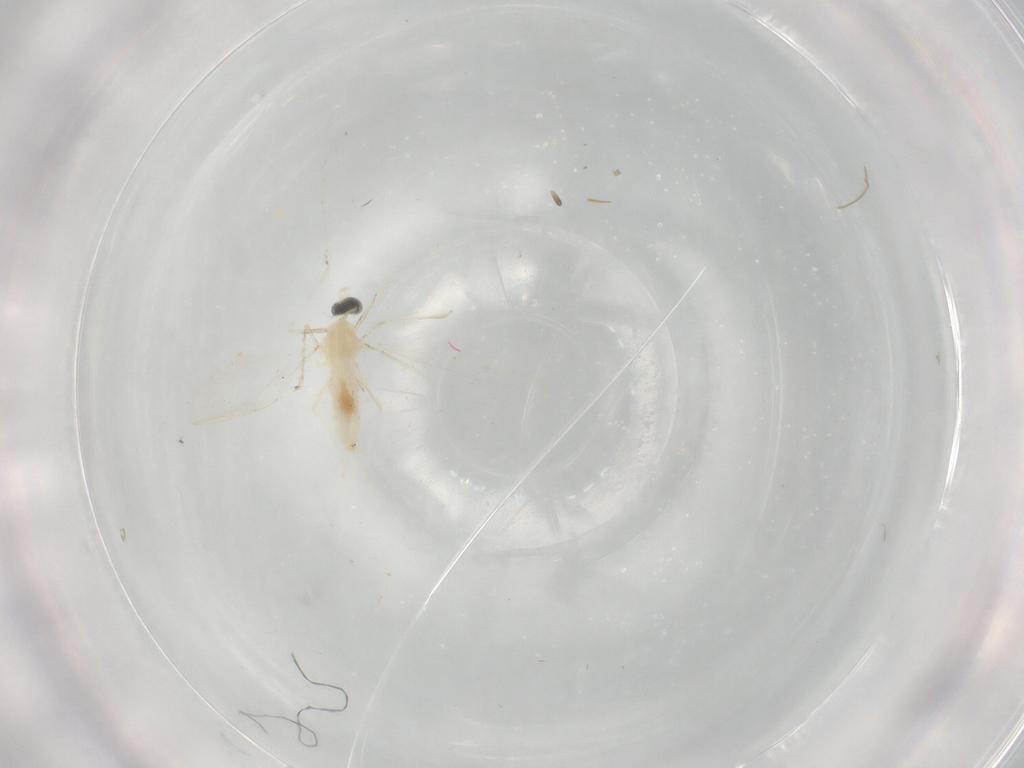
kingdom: Animalia
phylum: Arthropoda
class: Insecta
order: Diptera
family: Cecidomyiidae
